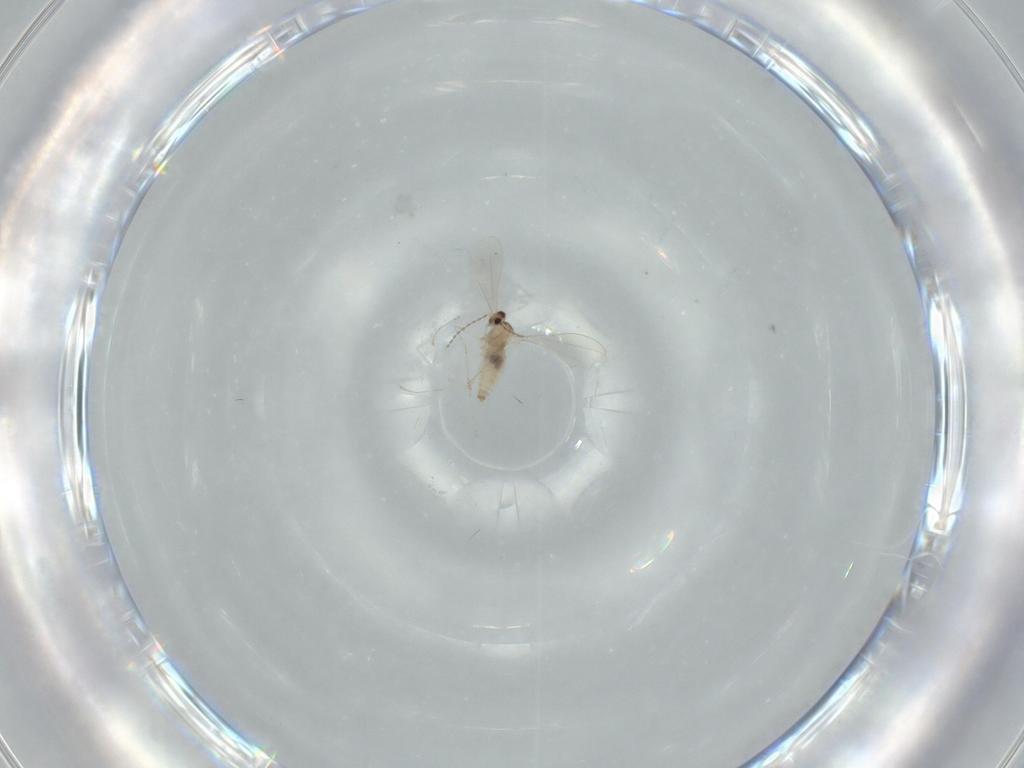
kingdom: Animalia
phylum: Arthropoda
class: Insecta
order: Diptera
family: Cecidomyiidae
